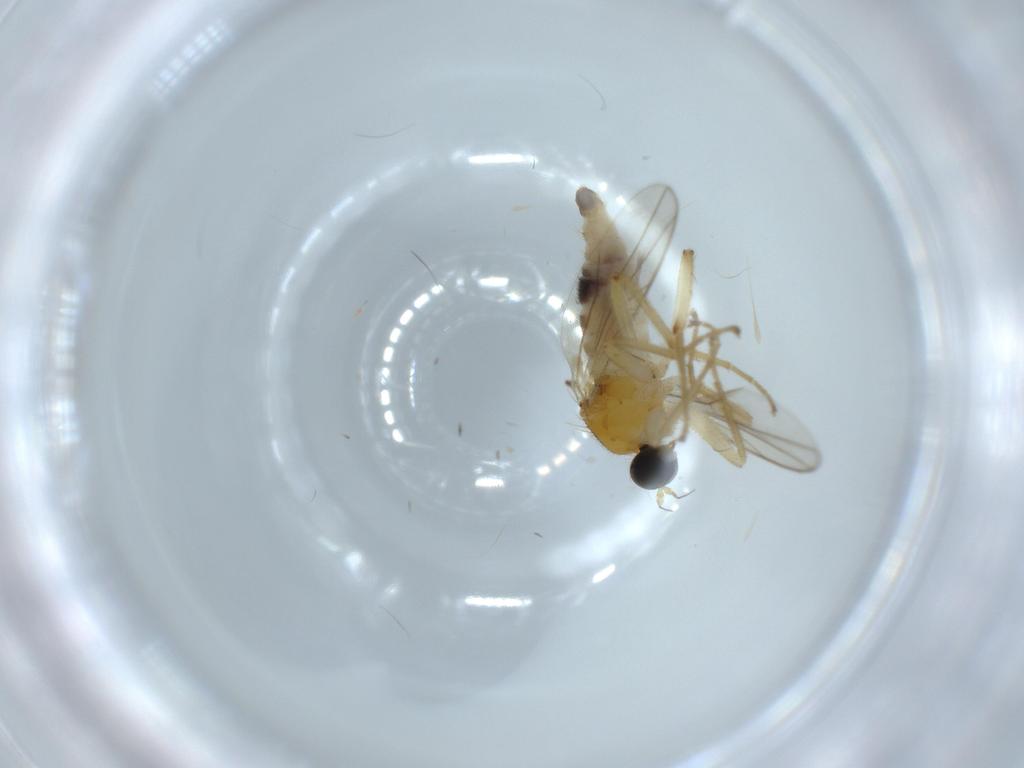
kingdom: Animalia
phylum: Arthropoda
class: Insecta
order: Diptera
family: Hybotidae
